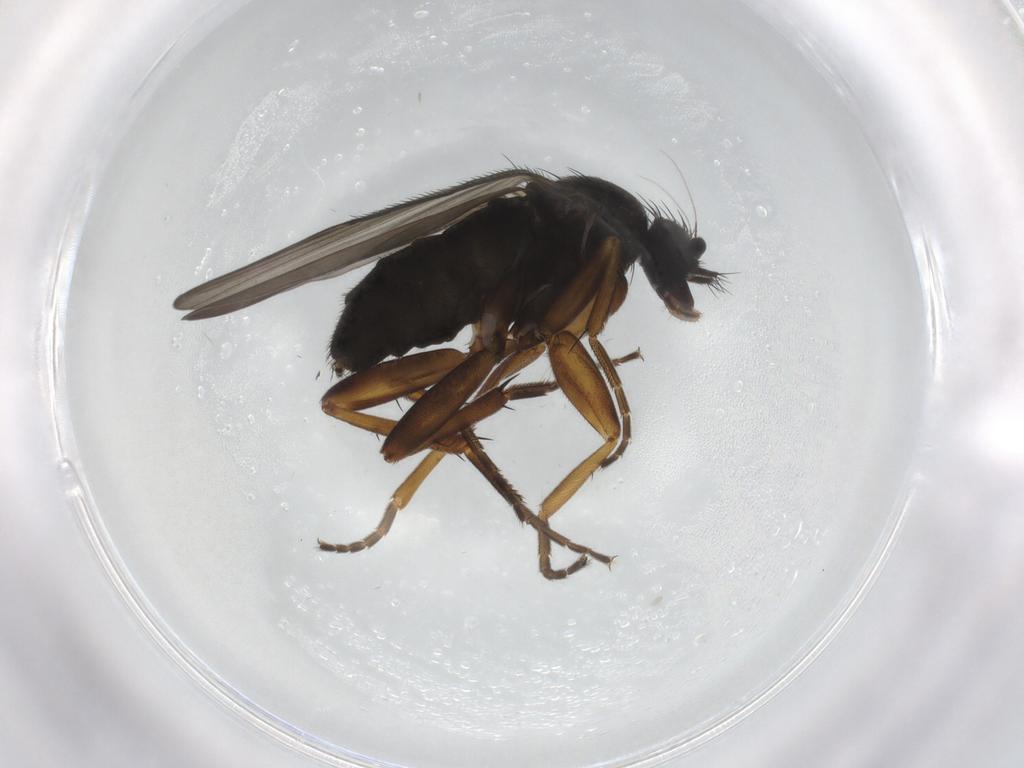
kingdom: Animalia
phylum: Arthropoda
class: Insecta
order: Diptera
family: Phoridae
